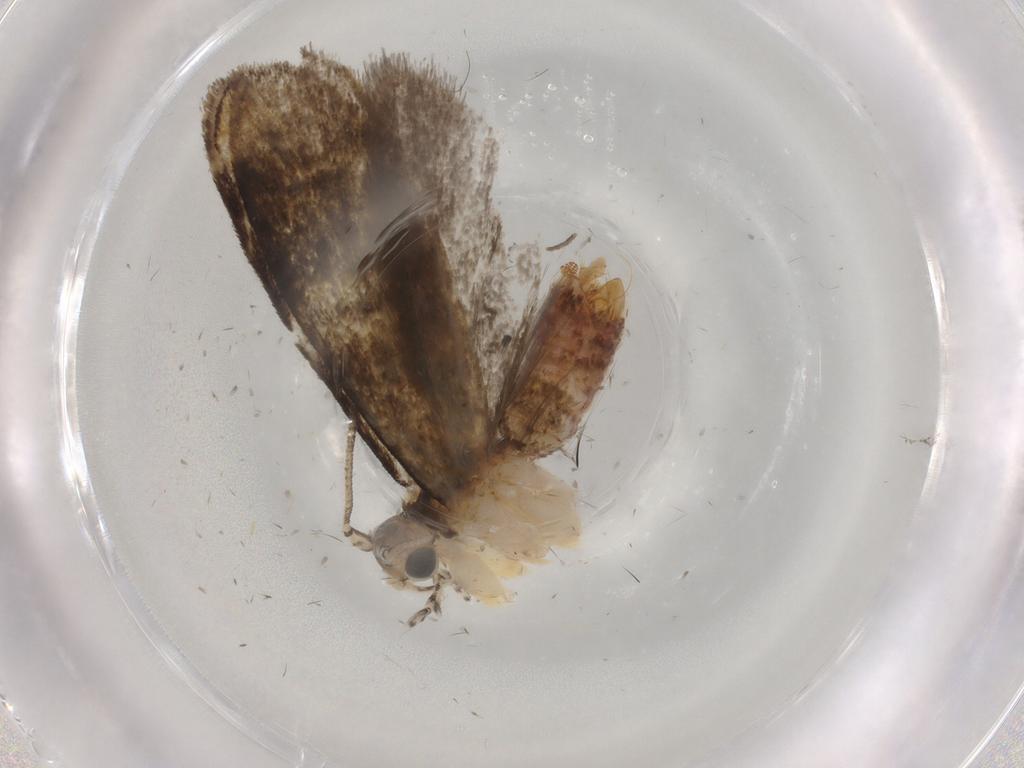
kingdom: Animalia
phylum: Arthropoda
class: Insecta
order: Lepidoptera
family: Tineidae
